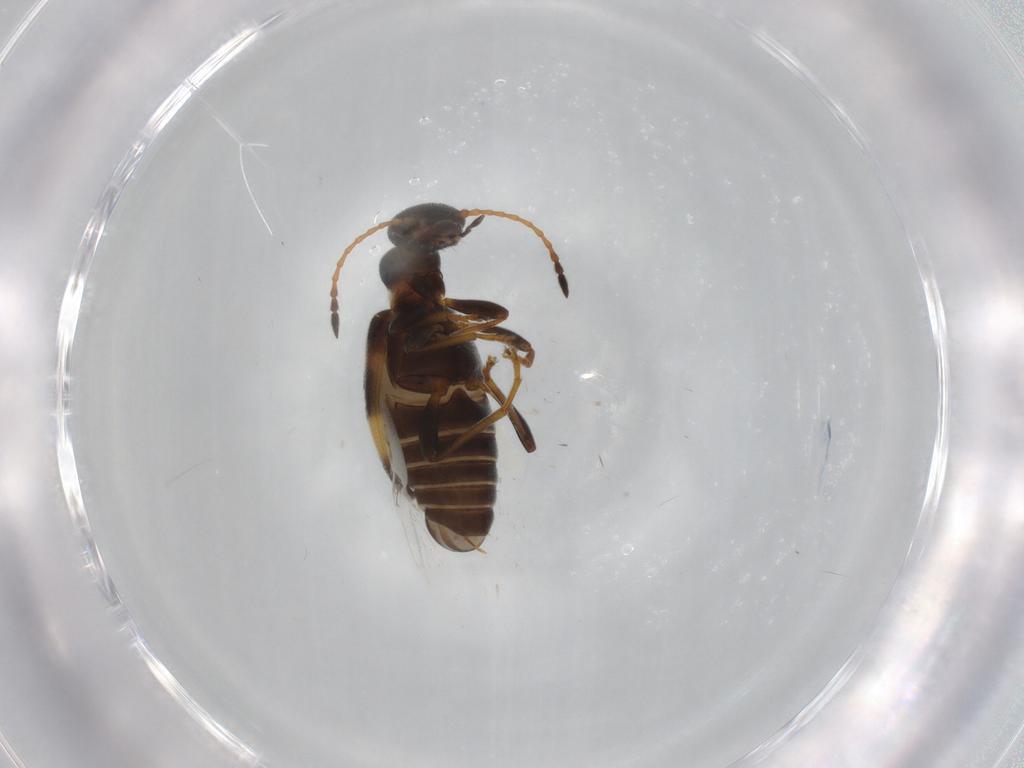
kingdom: Animalia
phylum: Arthropoda
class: Insecta
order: Coleoptera
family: Anthicidae
